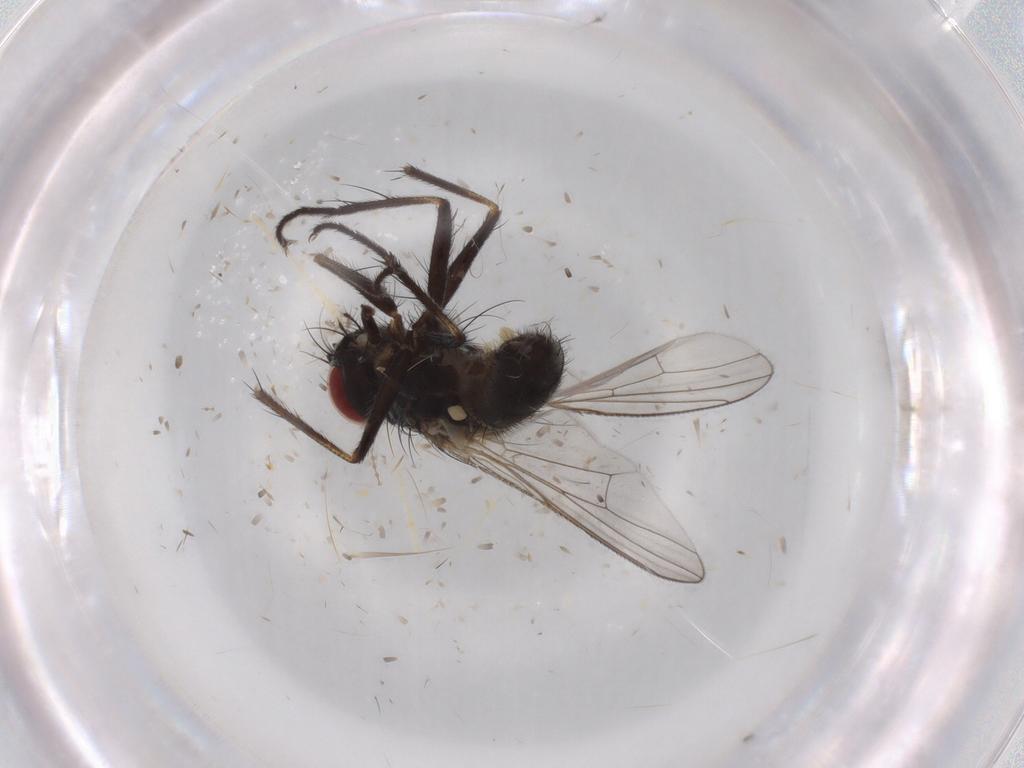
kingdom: Animalia
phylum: Arthropoda
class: Insecta
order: Diptera
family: Muscidae
